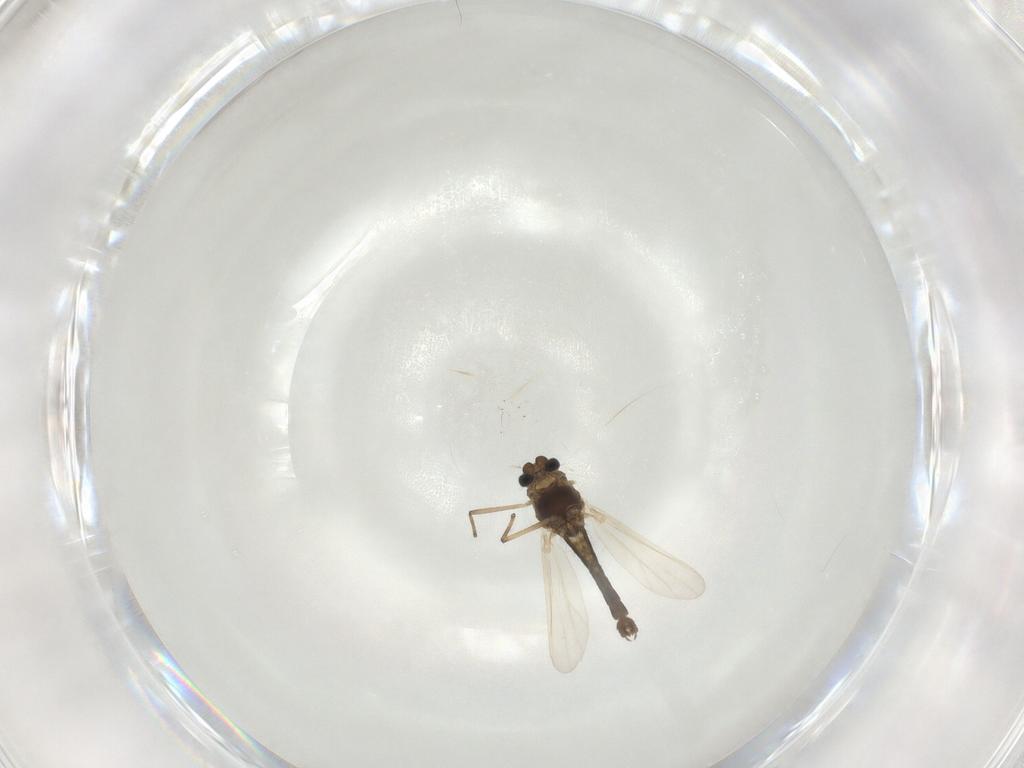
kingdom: Animalia
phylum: Arthropoda
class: Insecta
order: Diptera
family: Chironomidae
